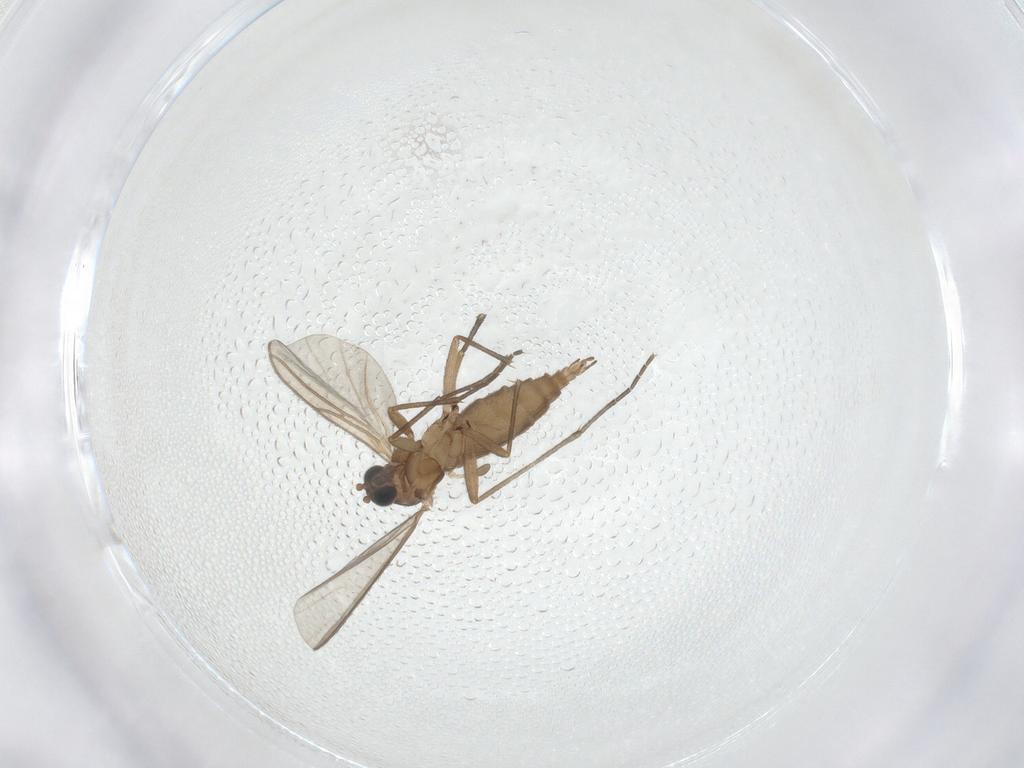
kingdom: Animalia
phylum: Arthropoda
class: Insecta
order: Diptera
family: Sciaridae
